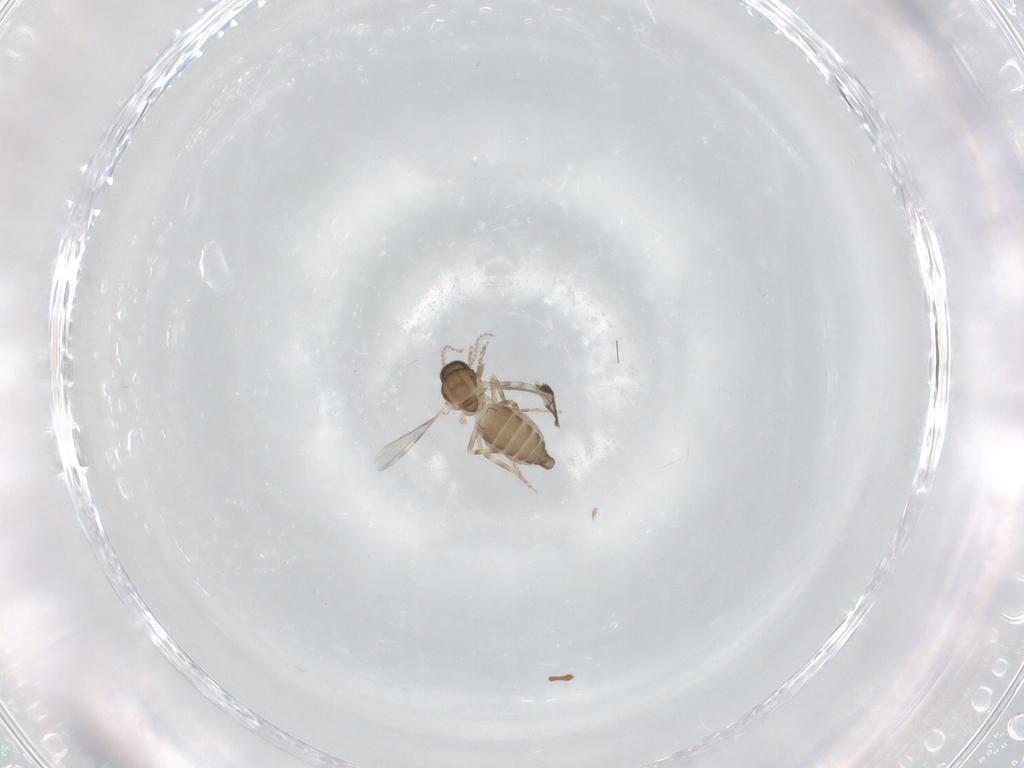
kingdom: Animalia
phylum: Arthropoda
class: Insecta
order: Diptera
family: Ceratopogonidae
